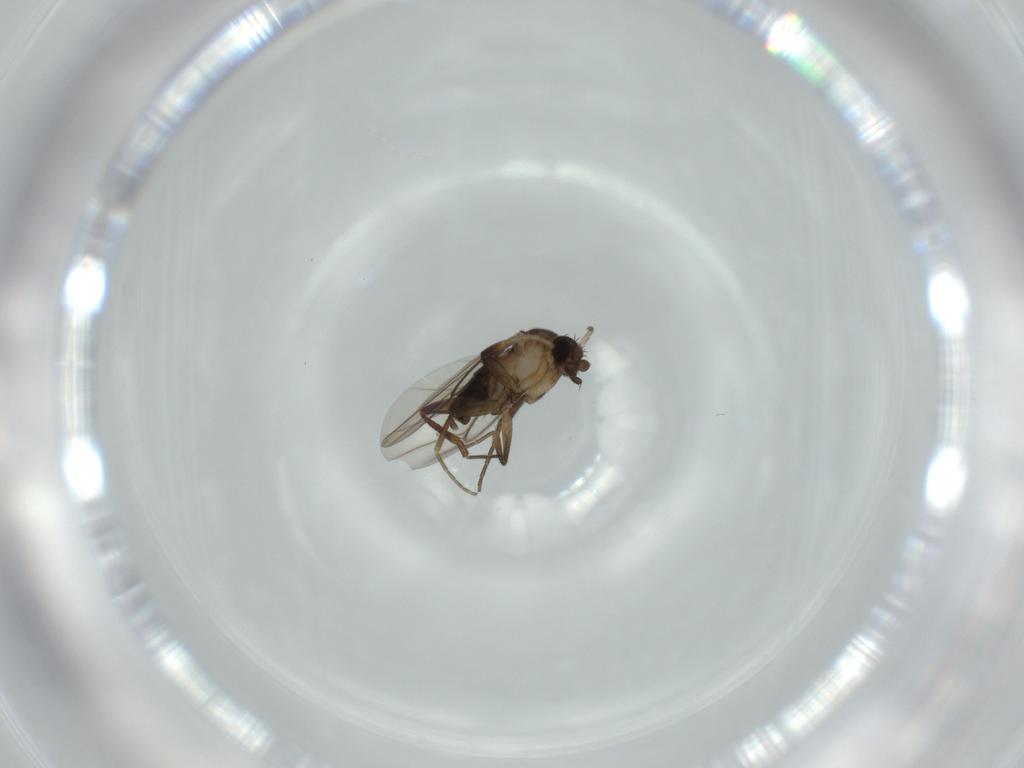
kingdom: Animalia
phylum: Arthropoda
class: Insecta
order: Diptera
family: Phoridae
